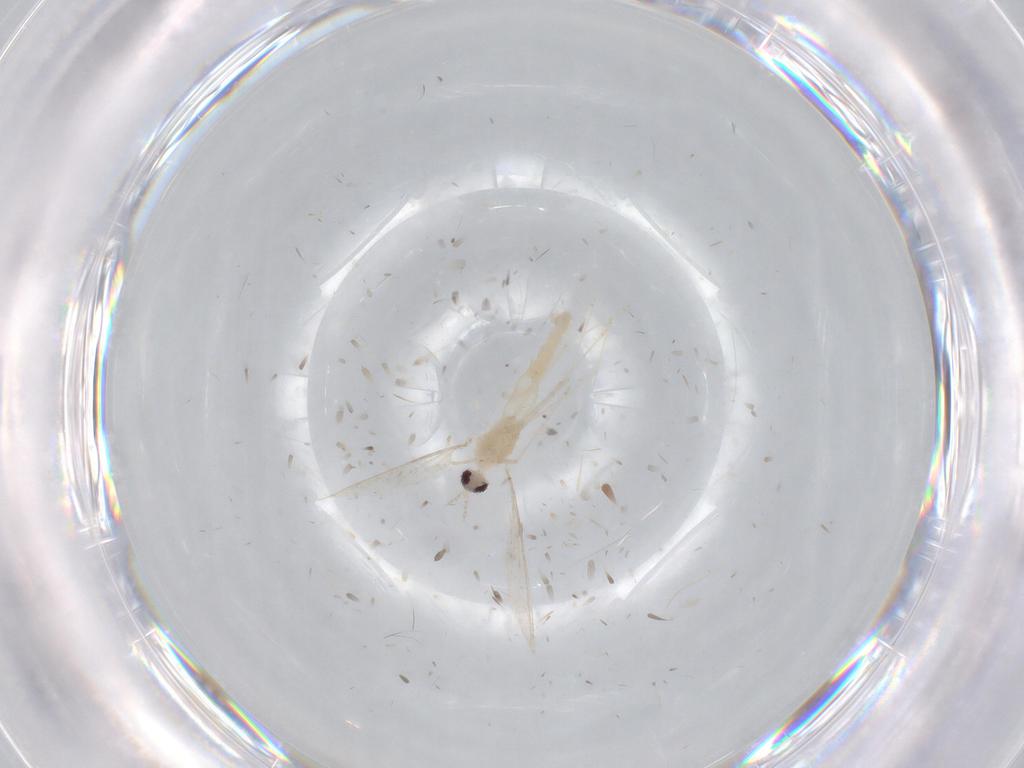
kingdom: Animalia
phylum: Arthropoda
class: Insecta
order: Diptera
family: Cecidomyiidae
